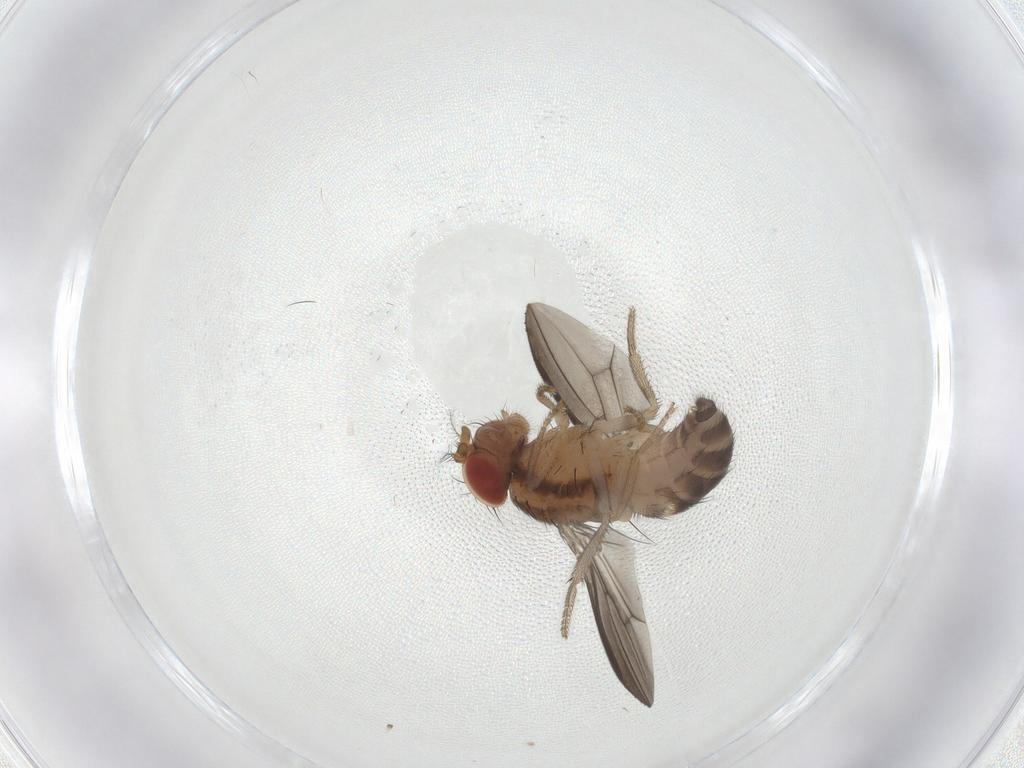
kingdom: Animalia
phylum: Arthropoda
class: Insecta
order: Diptera
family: Drosophilidae
